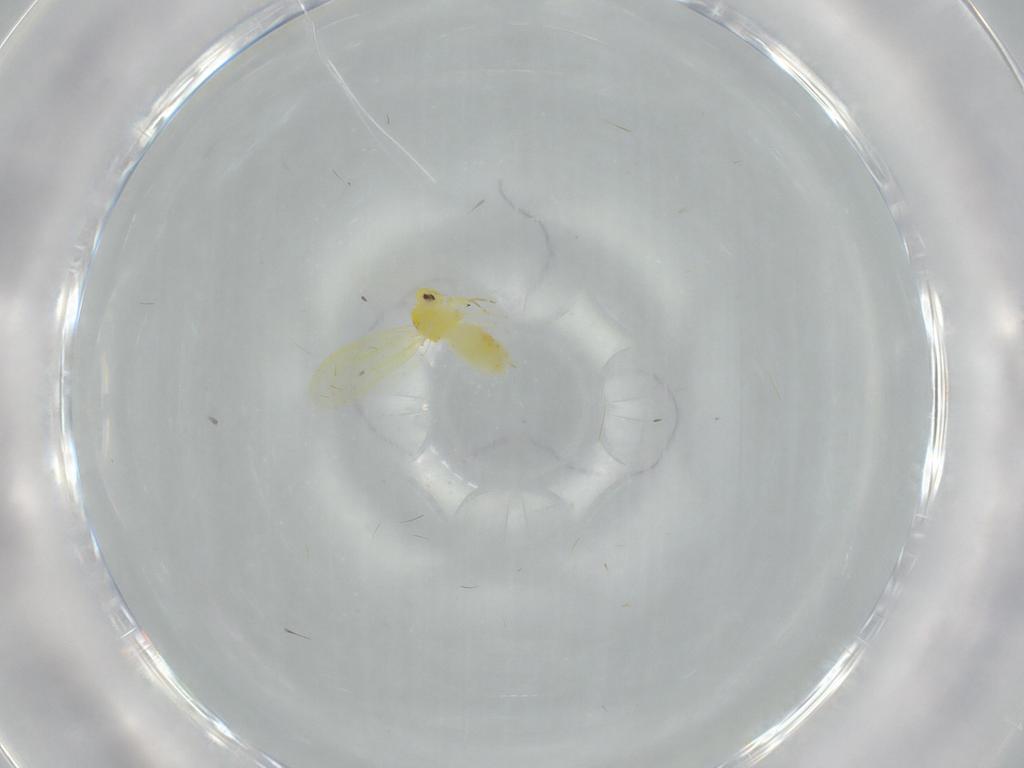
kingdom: Animalia
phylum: Arthropoda
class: Insecta
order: Hemiptera
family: Aleyrodidae
